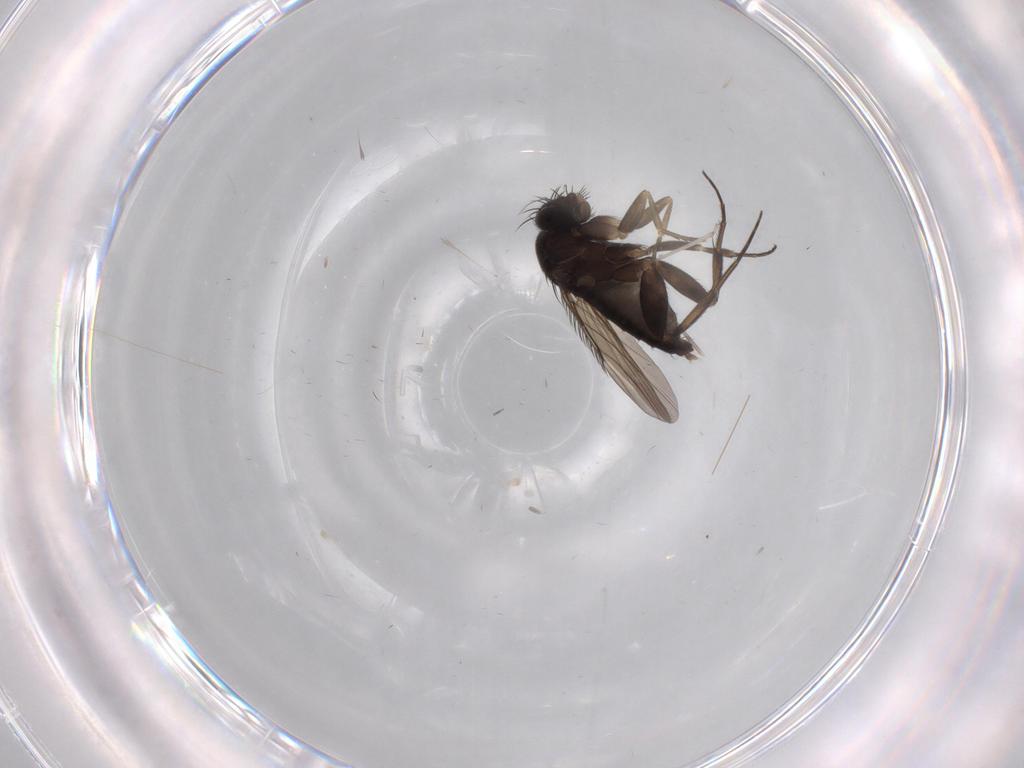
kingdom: Animalia
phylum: Arthropoda
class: Insecta
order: Diptera
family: Phoridae
